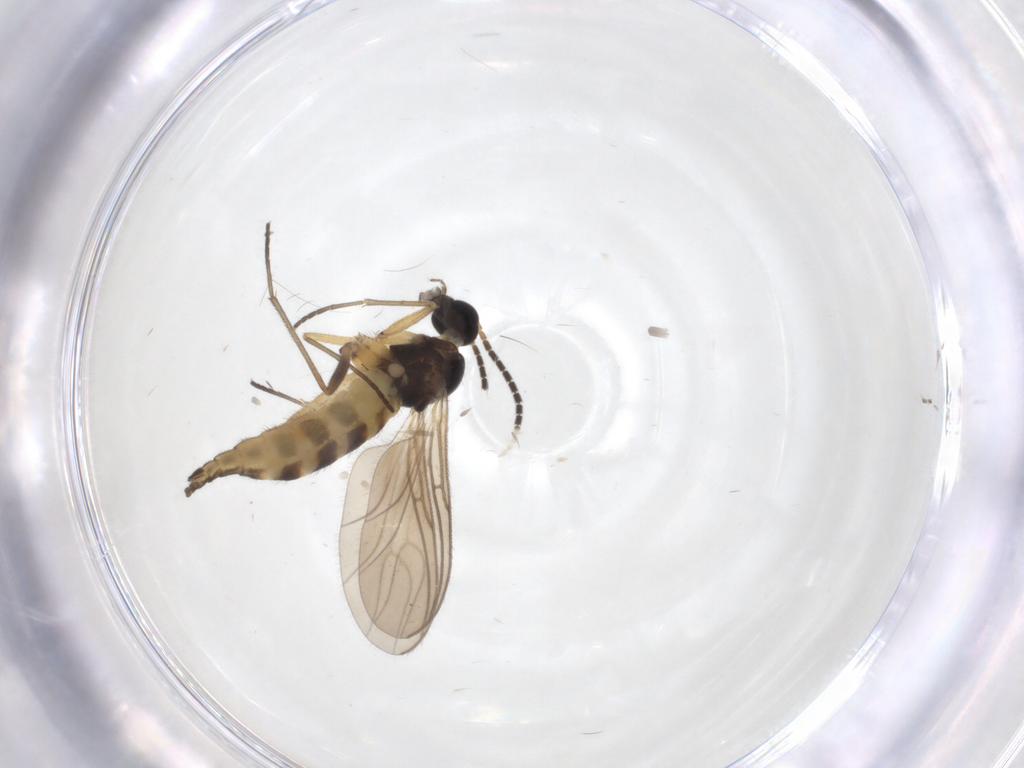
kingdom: Animalia
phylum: Arthropoda
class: Insecta
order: Diptera
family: Sciaridae
